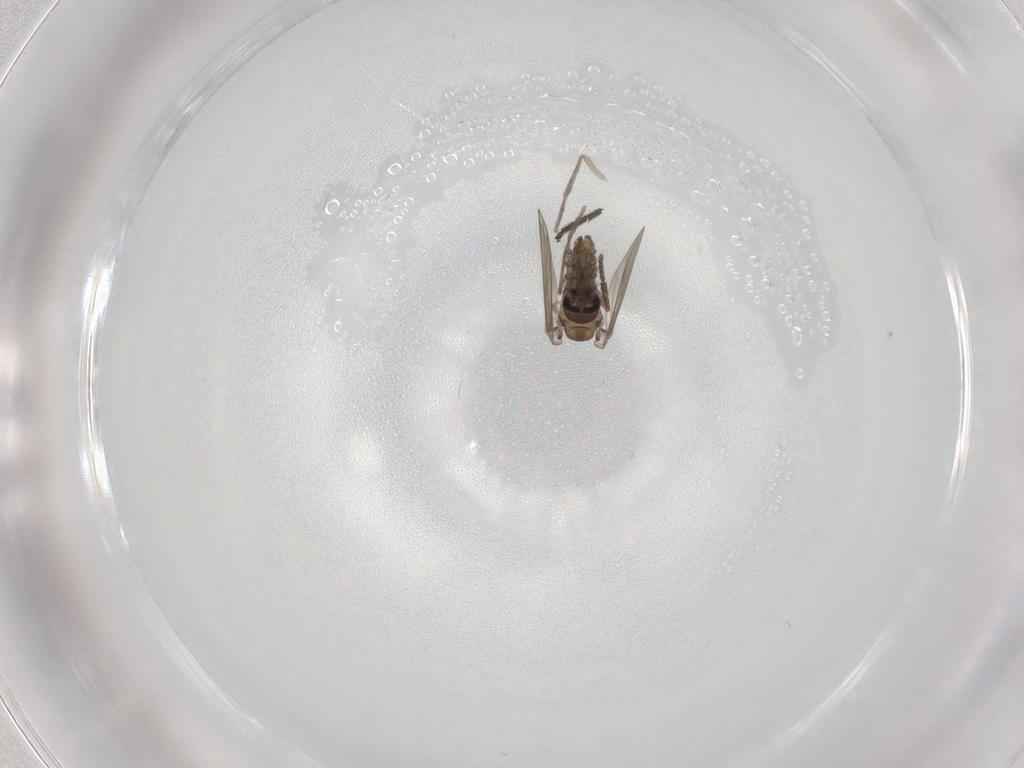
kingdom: Animalia
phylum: Arthropoda
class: Insecta
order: Diptera
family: Psychodidae
